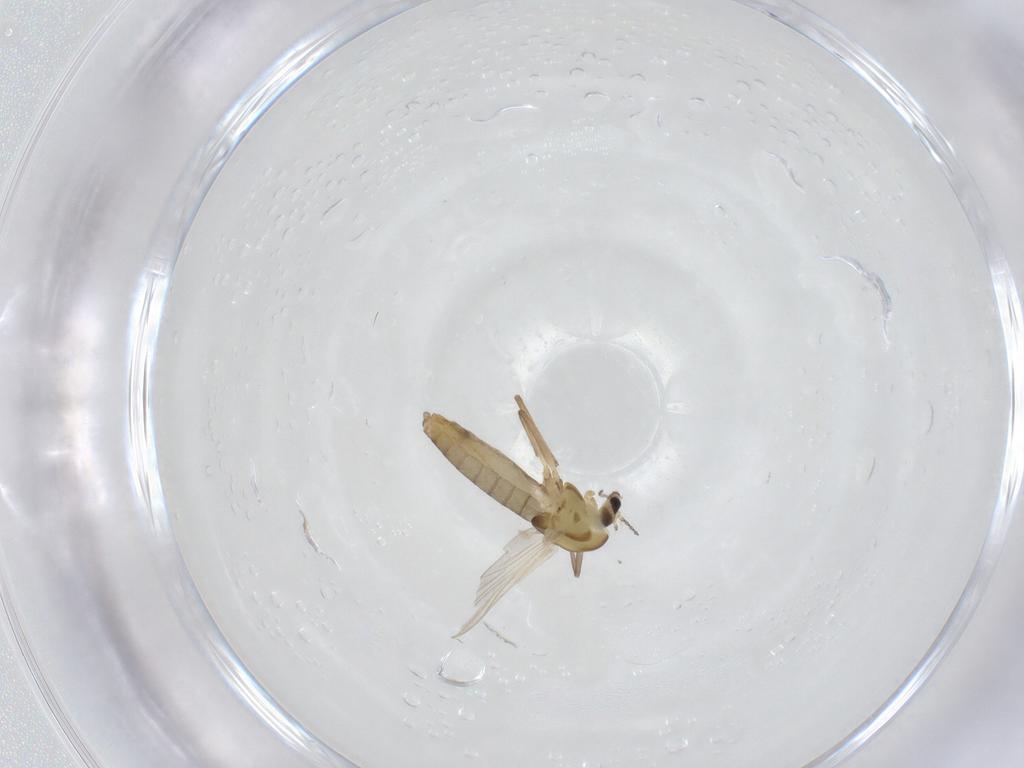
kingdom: Animalia
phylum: Arthropoda
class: Insecta
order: Diptera
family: Chironomidae
